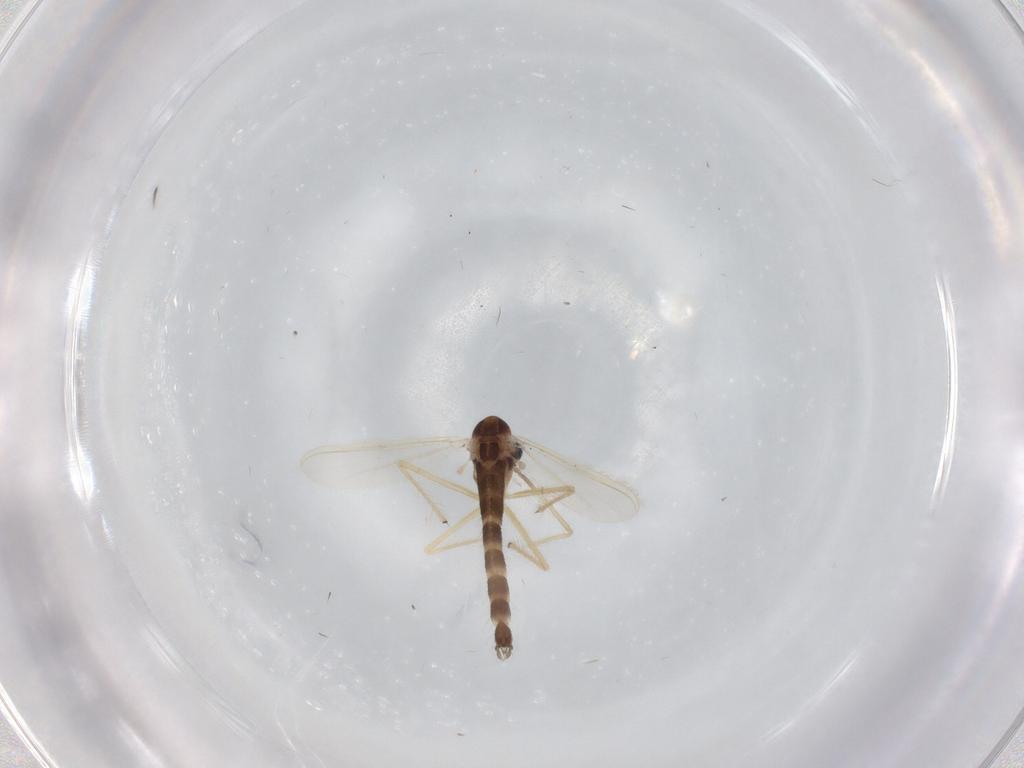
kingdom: Animalia
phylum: Arthropoda
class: Insecta
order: Diptera
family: Chironomidae
